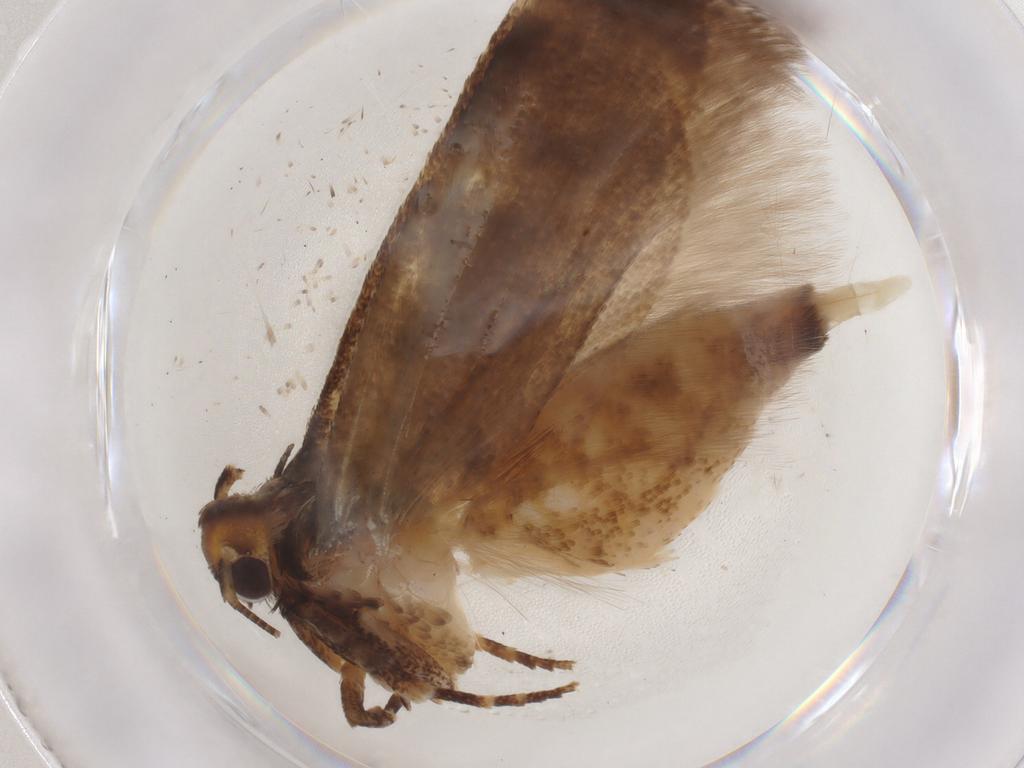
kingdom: Animalia
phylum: Arthropoda
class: Insecta
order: Lepidoptera
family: Gelechiidae
